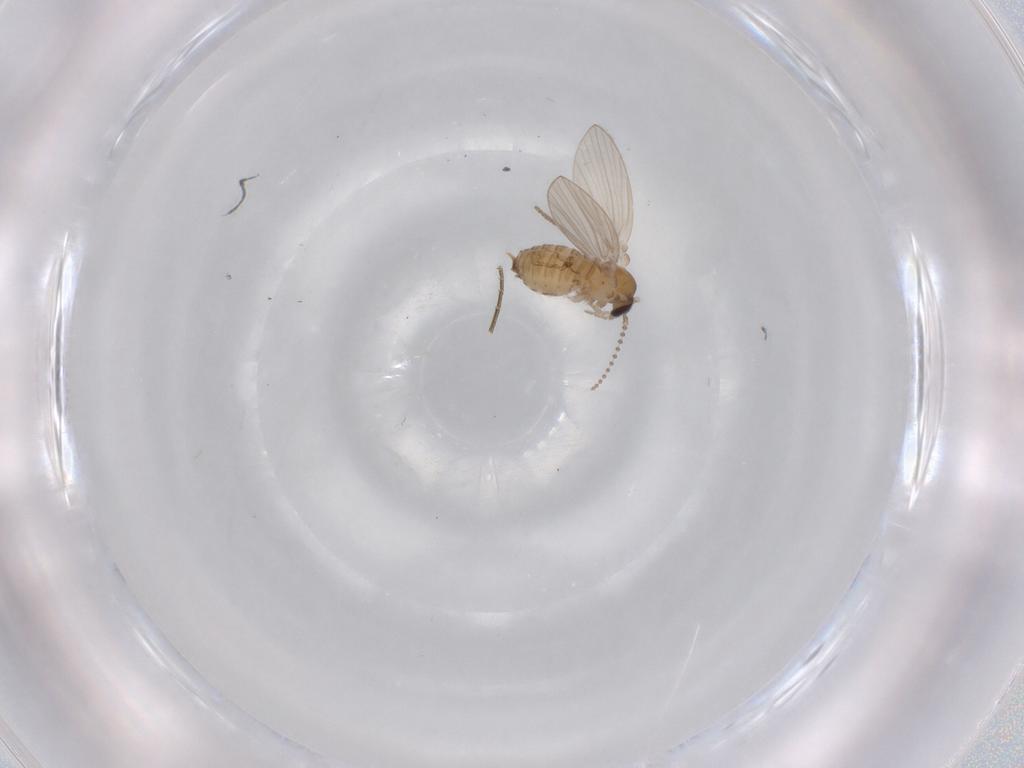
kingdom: Animalia
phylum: Arthropoda
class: Insecta
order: Diptera
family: Psychodidae
